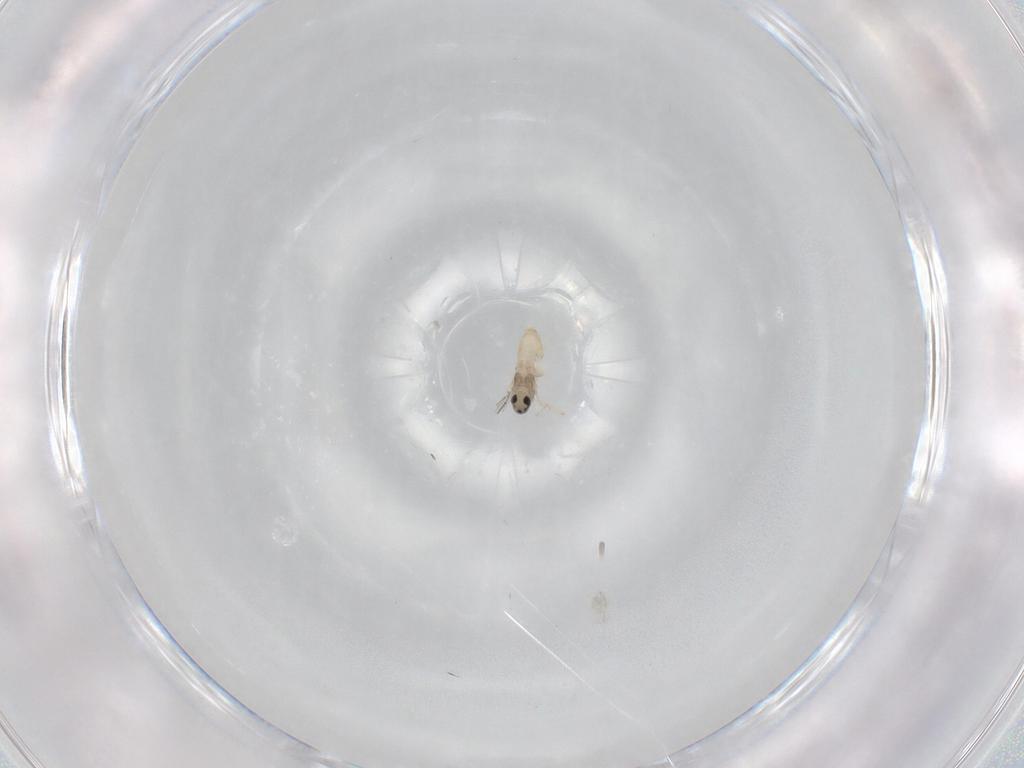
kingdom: Animalia
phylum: Arthropoda
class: Insecta
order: Diptera
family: Cecidomyiidae
